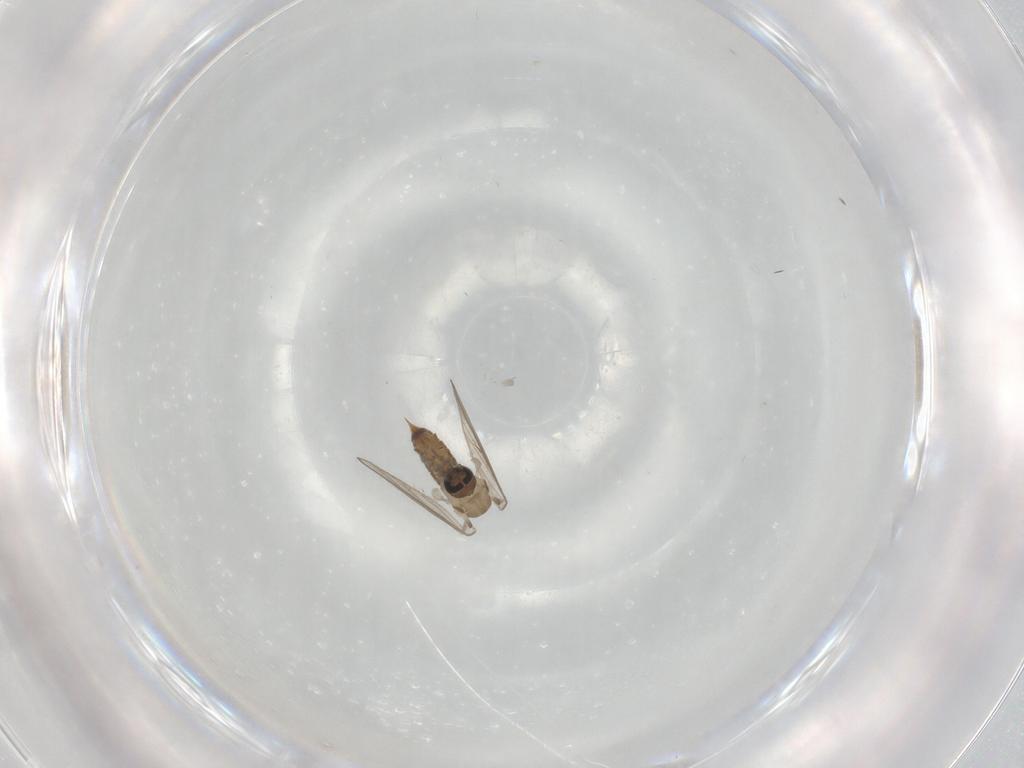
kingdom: Animalia
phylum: Arthropoda
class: Insecta
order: Diptera
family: Psychodidae
